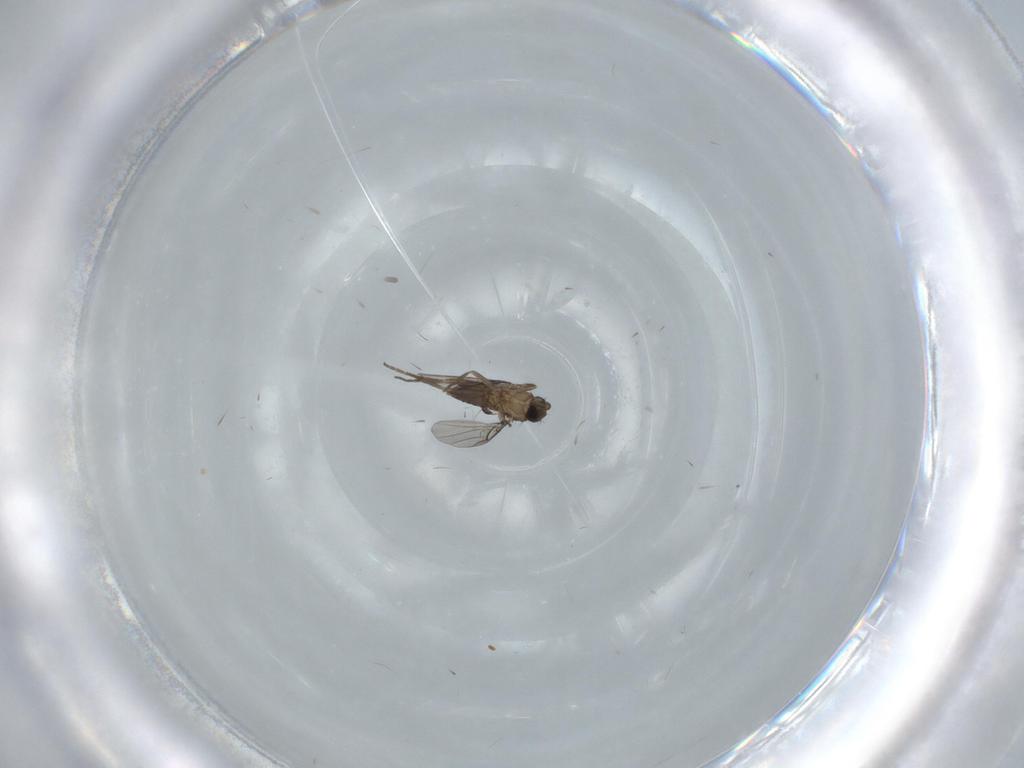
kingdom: Animalia
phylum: Arthropoda
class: Insecta
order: Diptera
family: Phoridae
